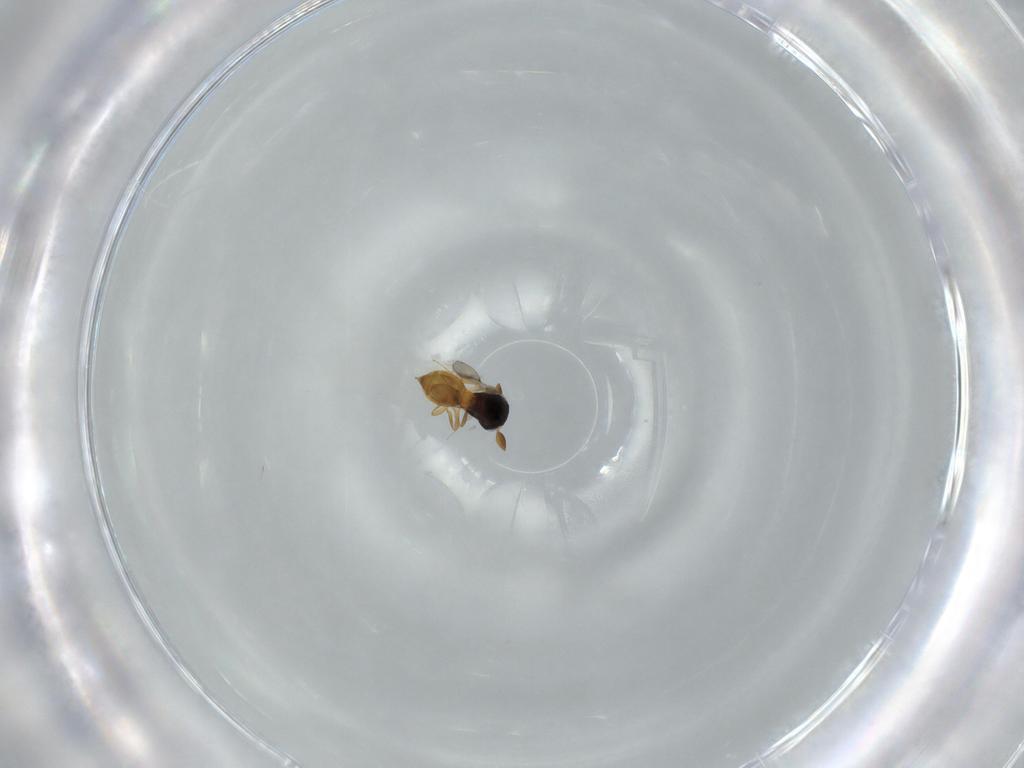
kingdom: Animalia
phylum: Arthropoda
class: Insecta
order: Hymenoptera
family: Scelionidae
